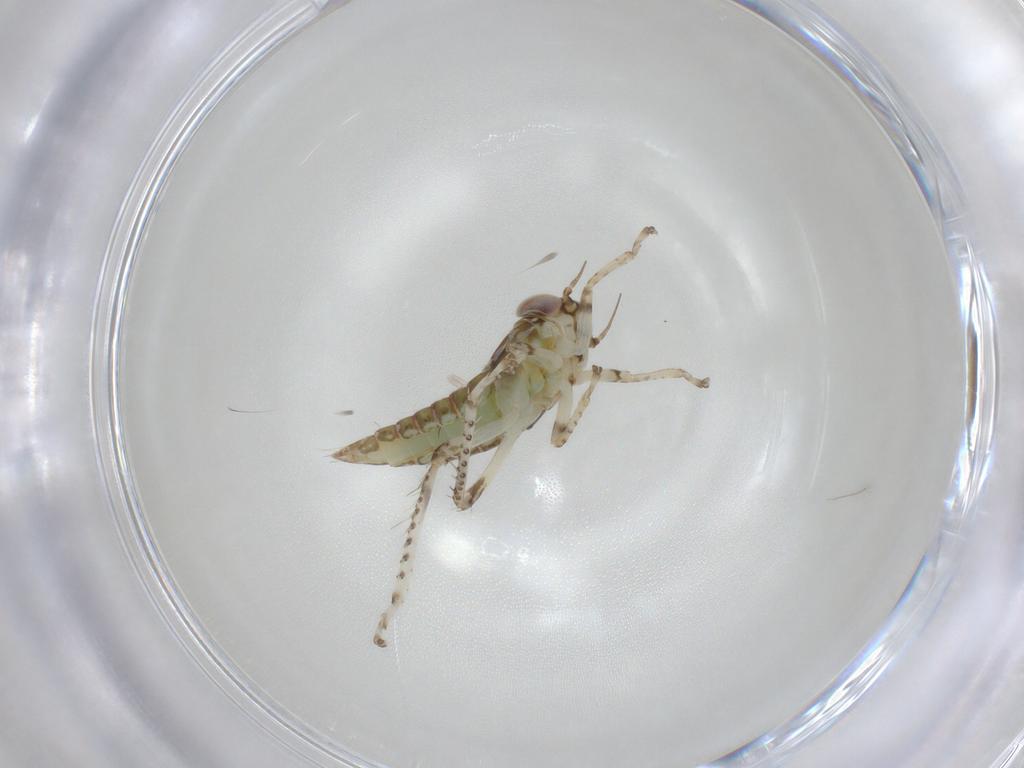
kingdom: Animalia
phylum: Arthropoda
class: Insecta
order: Hemiptera
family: Cicadellidae
